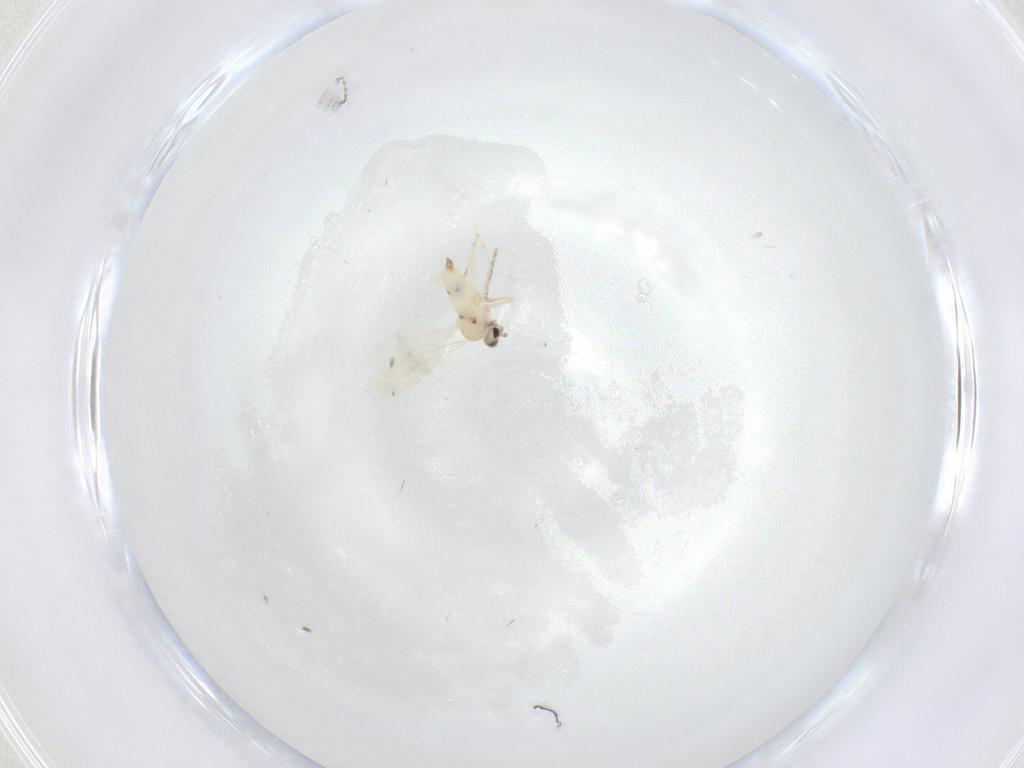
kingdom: Animalia
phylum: Arthropoda
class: Insecta
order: Diptera
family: Cecidomyiidae
